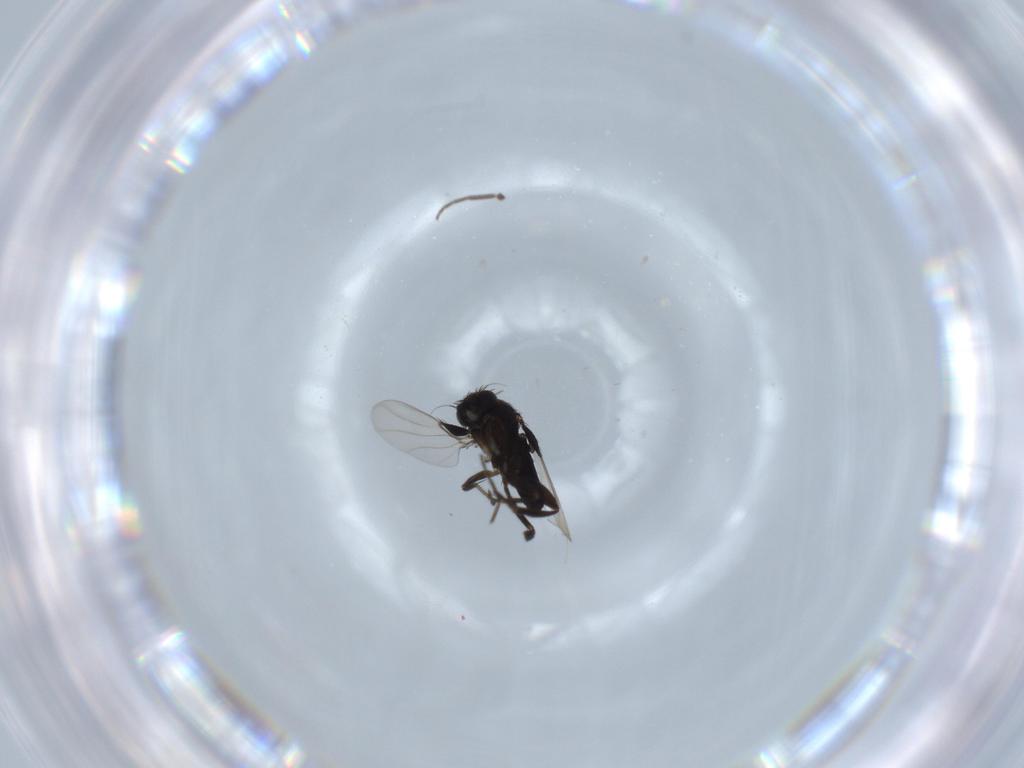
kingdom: Animalia
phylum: Arthropoda
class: Insecta
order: Diptera
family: Phoridae
